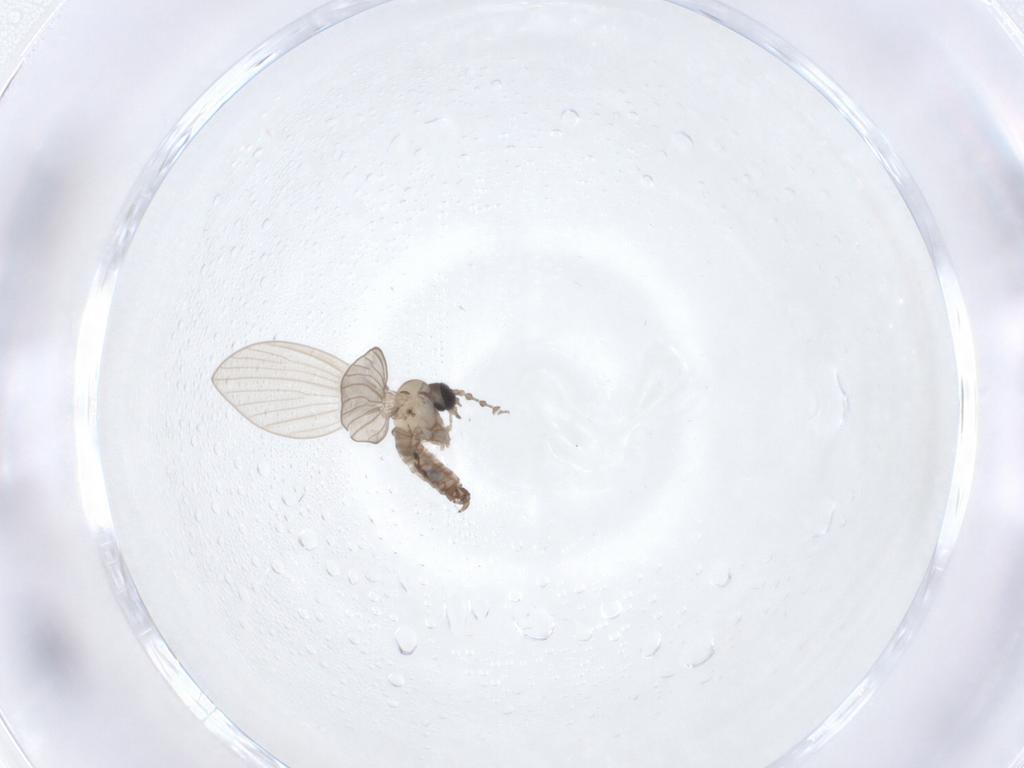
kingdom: Animalia
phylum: Arthropoda
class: Insecta
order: Diptera
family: Psychodidae
